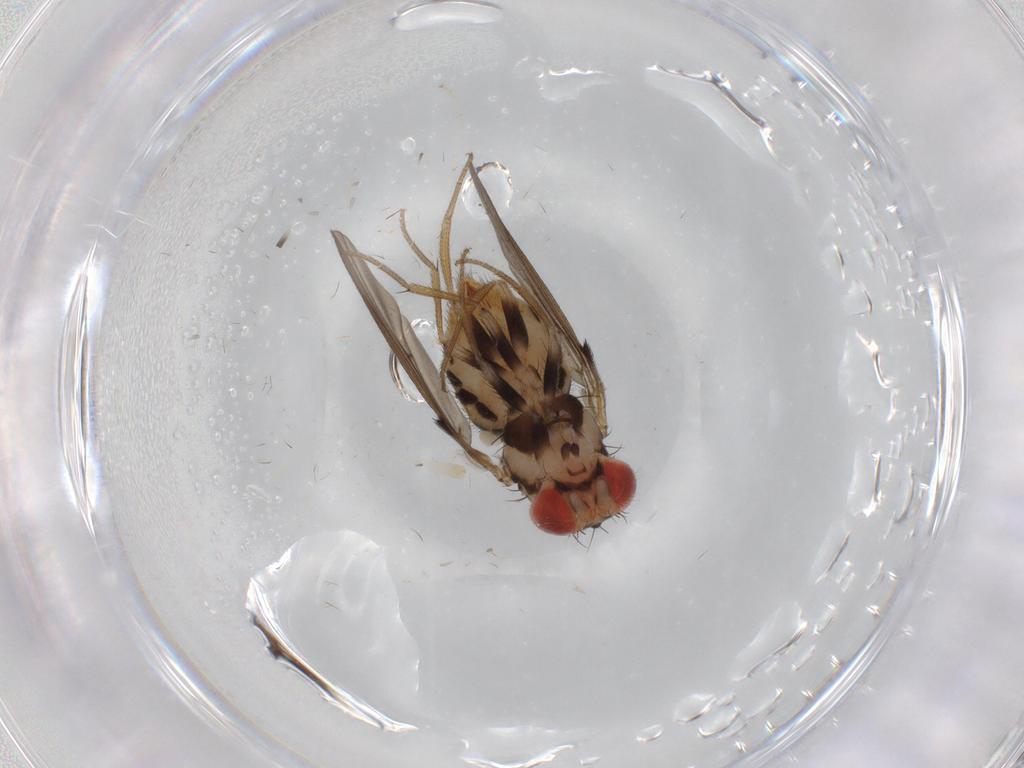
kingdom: Animalia
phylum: Arthropoda
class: Insecta
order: Diptera
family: Drosophilidae
